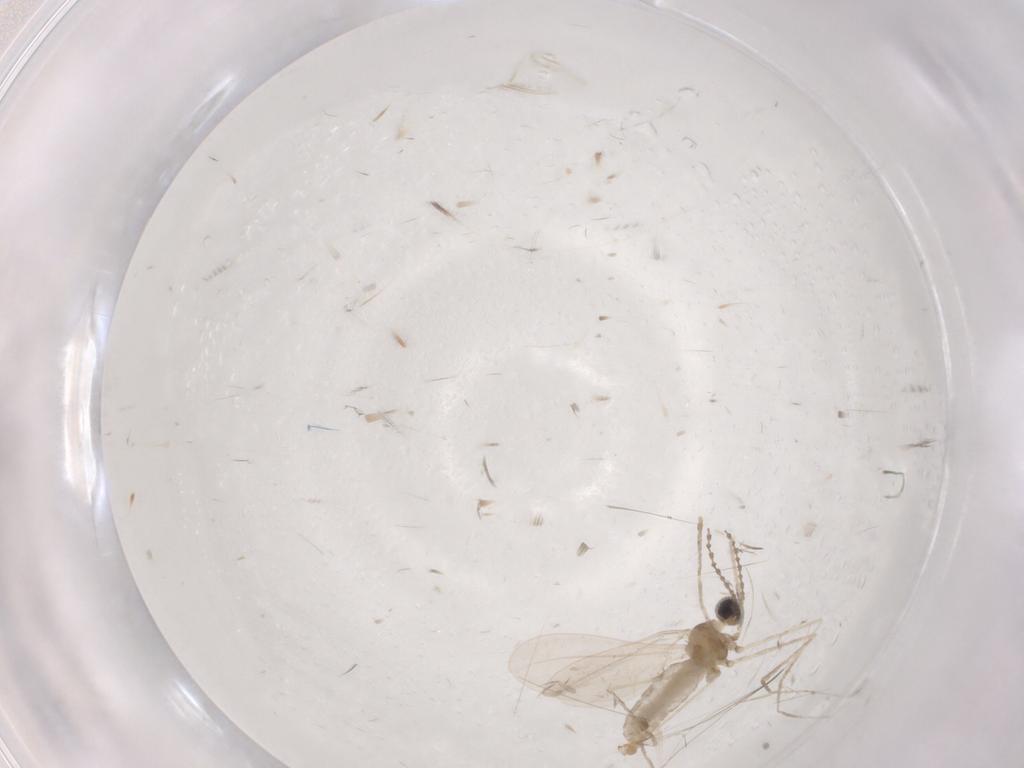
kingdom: Animalia
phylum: Arthropoda
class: Insecta
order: Diptera
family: Cecidomyiidae
